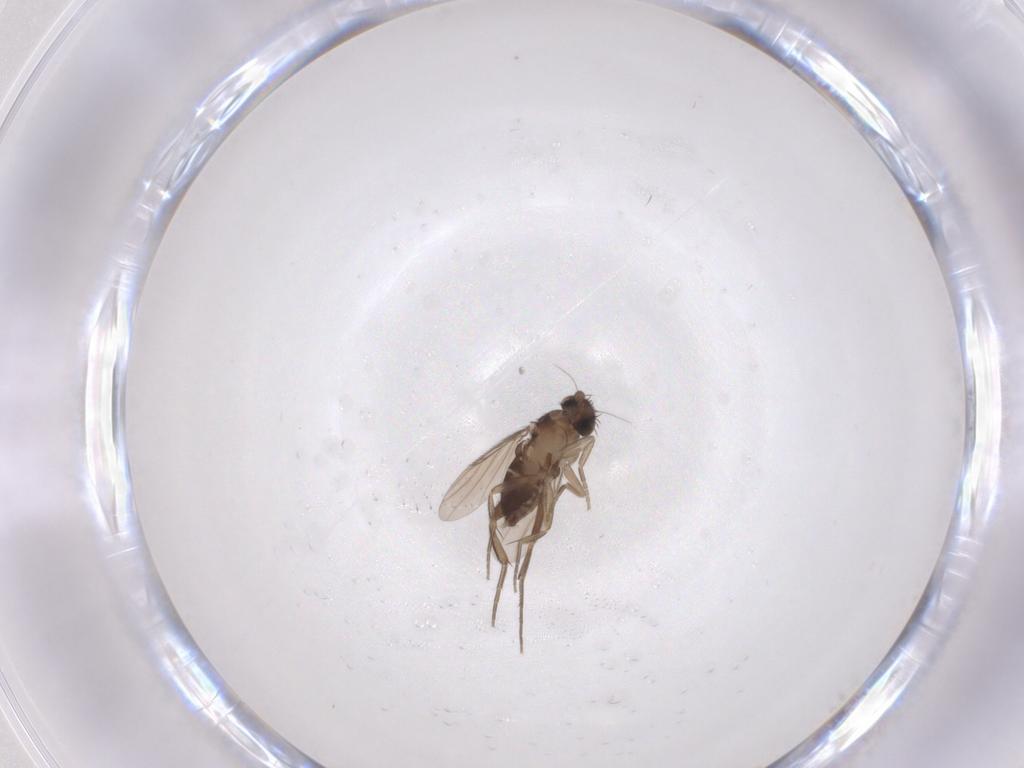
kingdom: Animalia
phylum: Arthropoda
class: Insecta
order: Diptera
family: Phoridae
